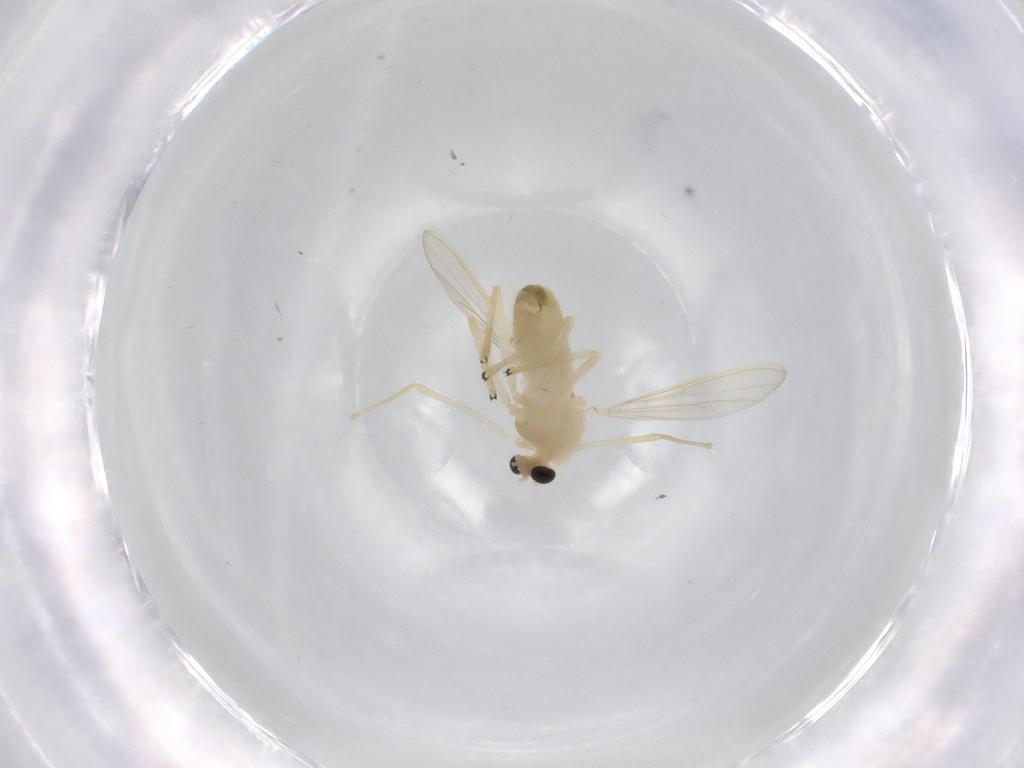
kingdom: Animalia
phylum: Arthropoda
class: Insecta
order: Diptera
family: Chironomidae
